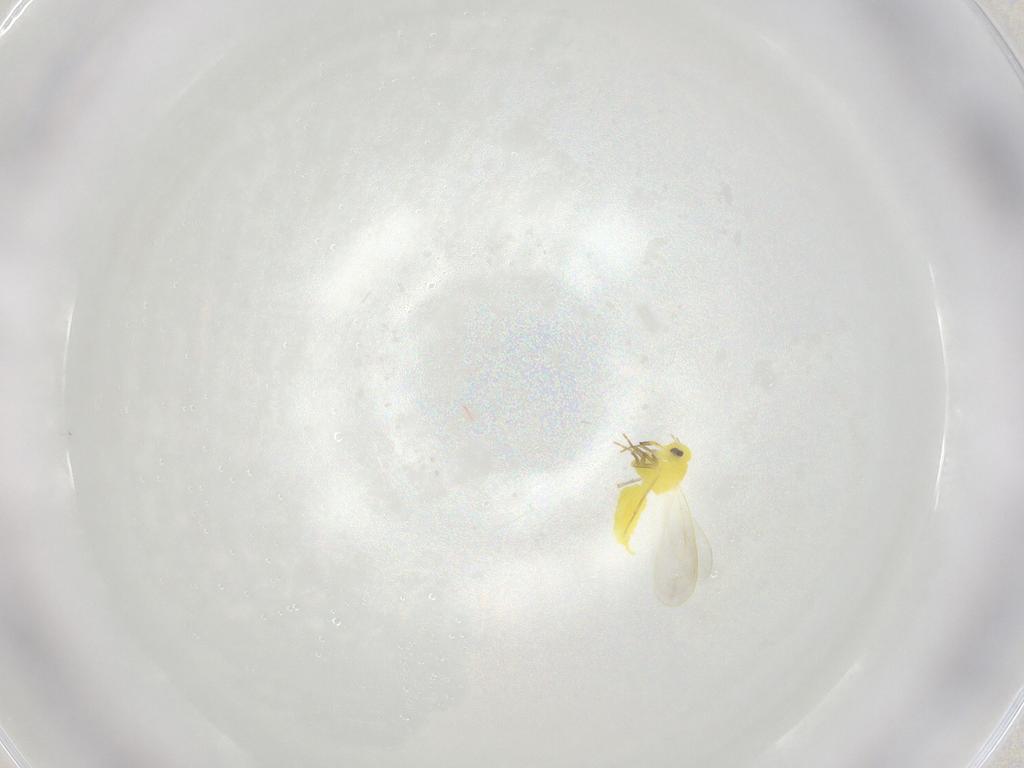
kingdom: Animalia
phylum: Arthropoda
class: Insecta
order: Hemiptera
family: Aleyrodidae
